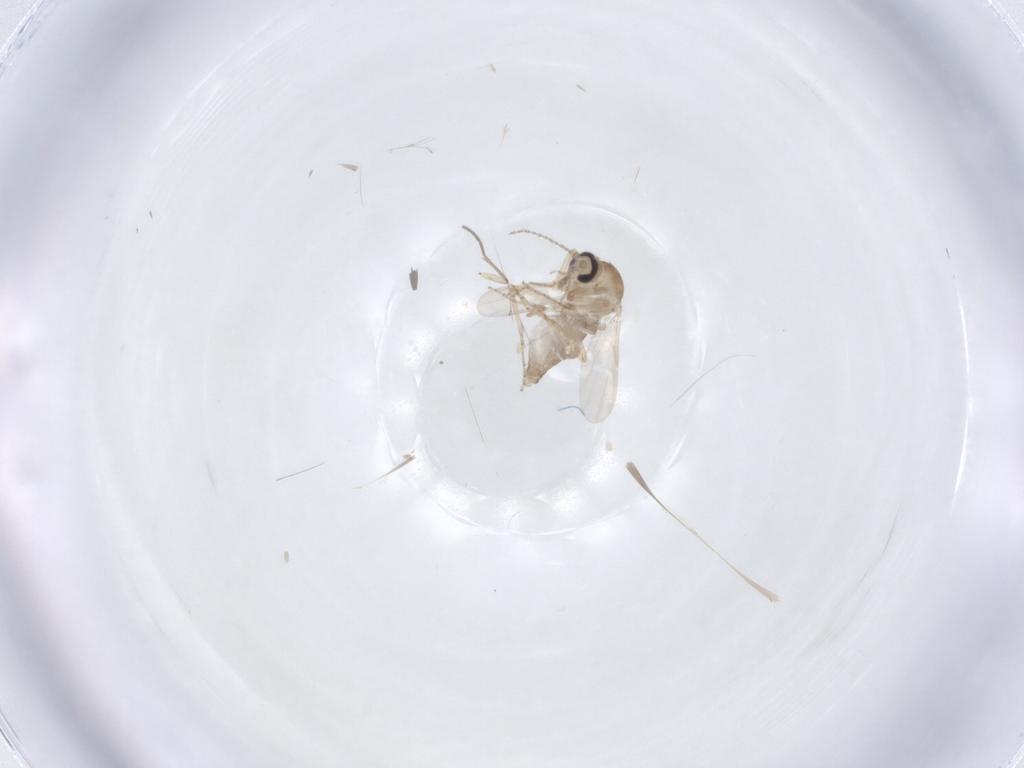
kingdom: Animalia
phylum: Arthropoda
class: Insecta
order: Diptera
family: Ceratopogonidae
